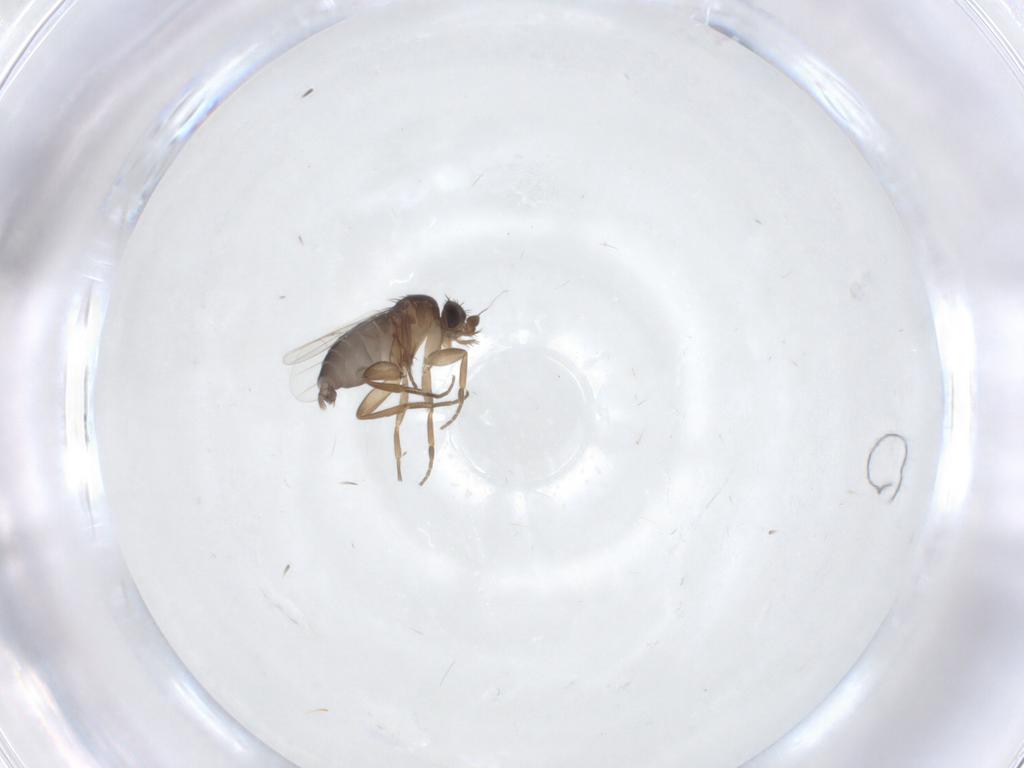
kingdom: Animalia
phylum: Arthropoda
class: Insecta
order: Diptera
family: Phoridae
